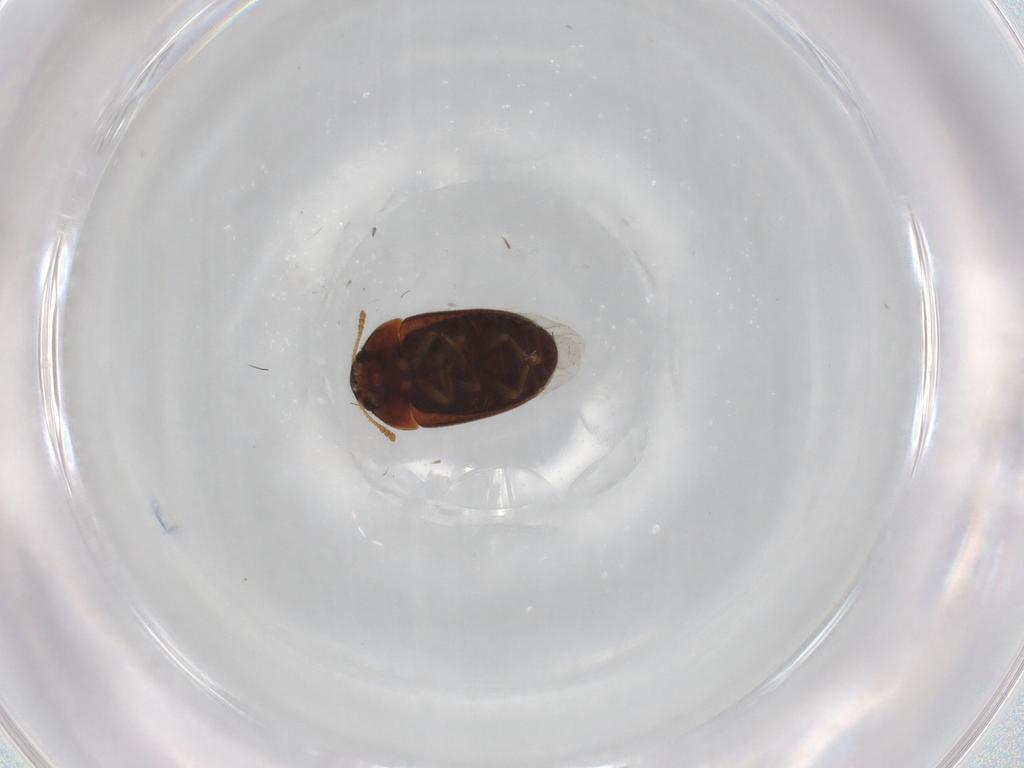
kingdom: Animalia
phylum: Arthropoda
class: Insecta
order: Coleoptera
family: Mycetophagidae
